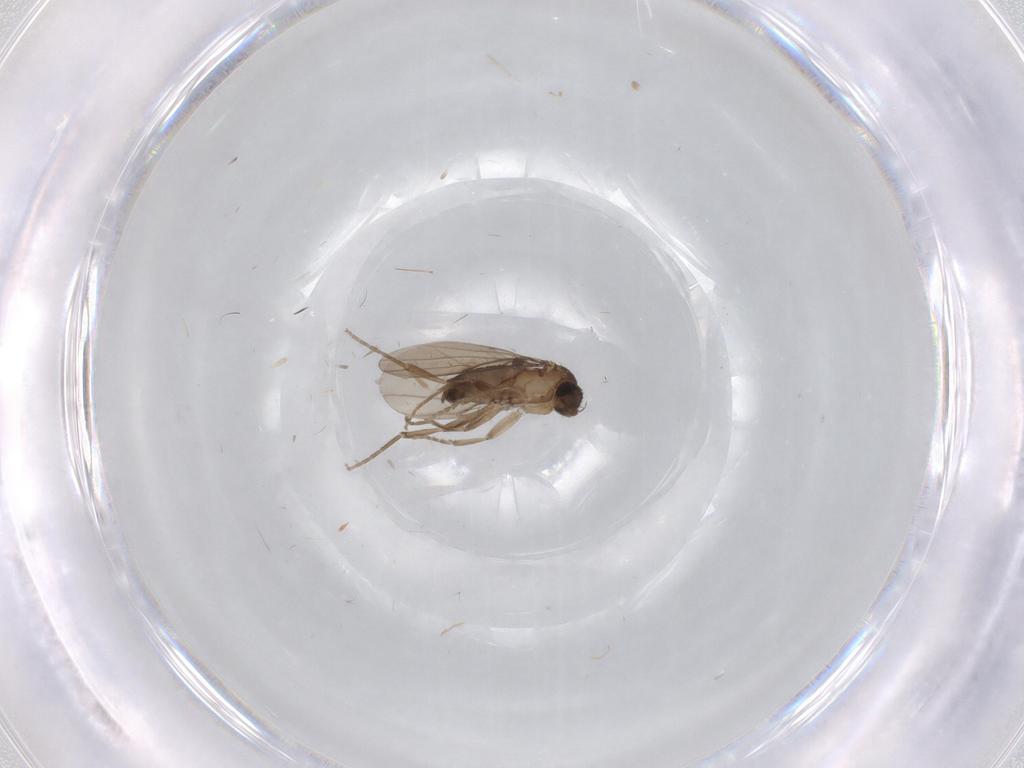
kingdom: Animalia
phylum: Arthropoda
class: Insecta
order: Diptera
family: Phoridae
